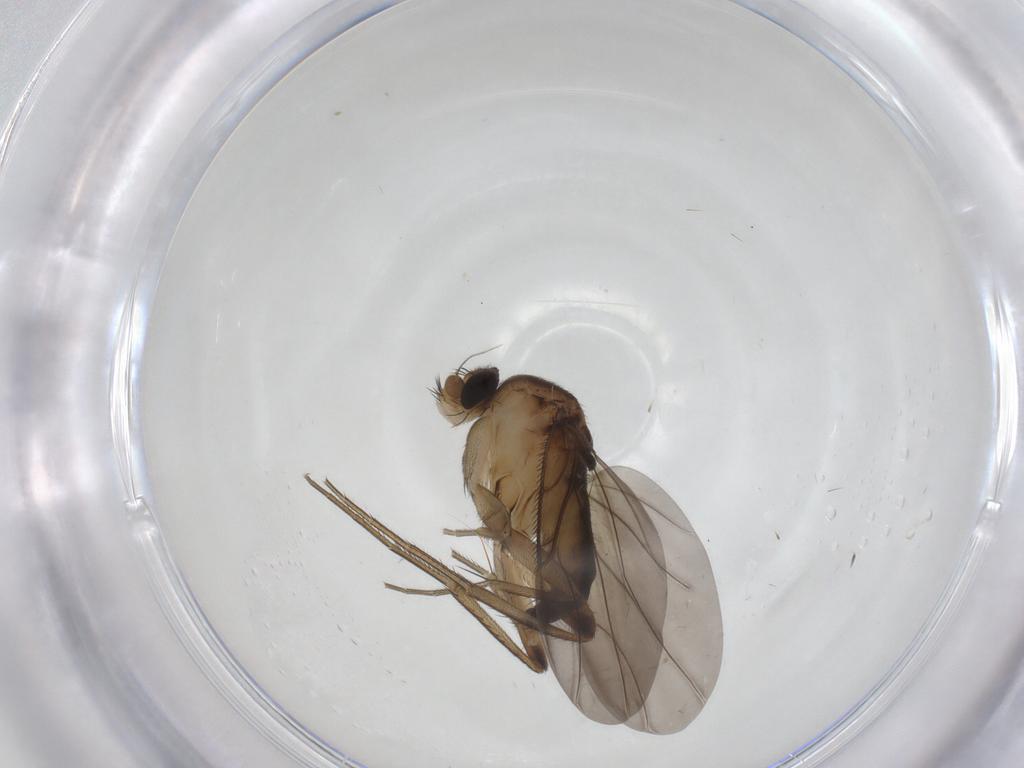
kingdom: Animalia
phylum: Arthropoda
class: Insecta
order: Diptera
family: Phoridae
